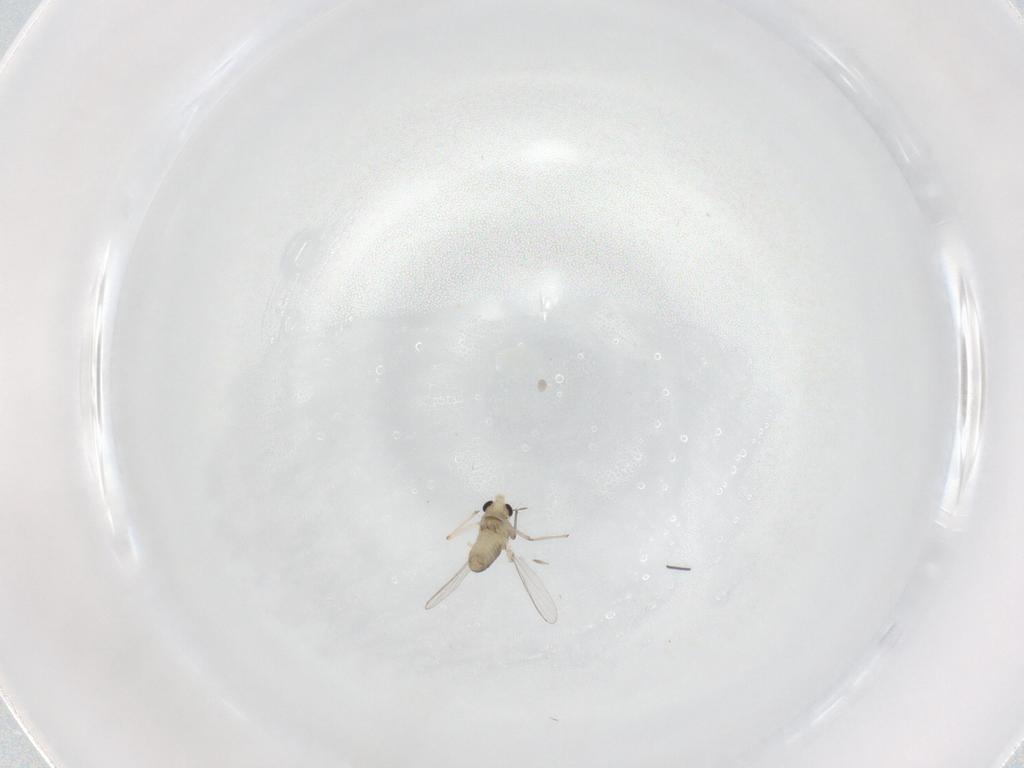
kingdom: Animalia
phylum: Arthropoda
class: Insecta
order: Diptera
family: Chironomidae
